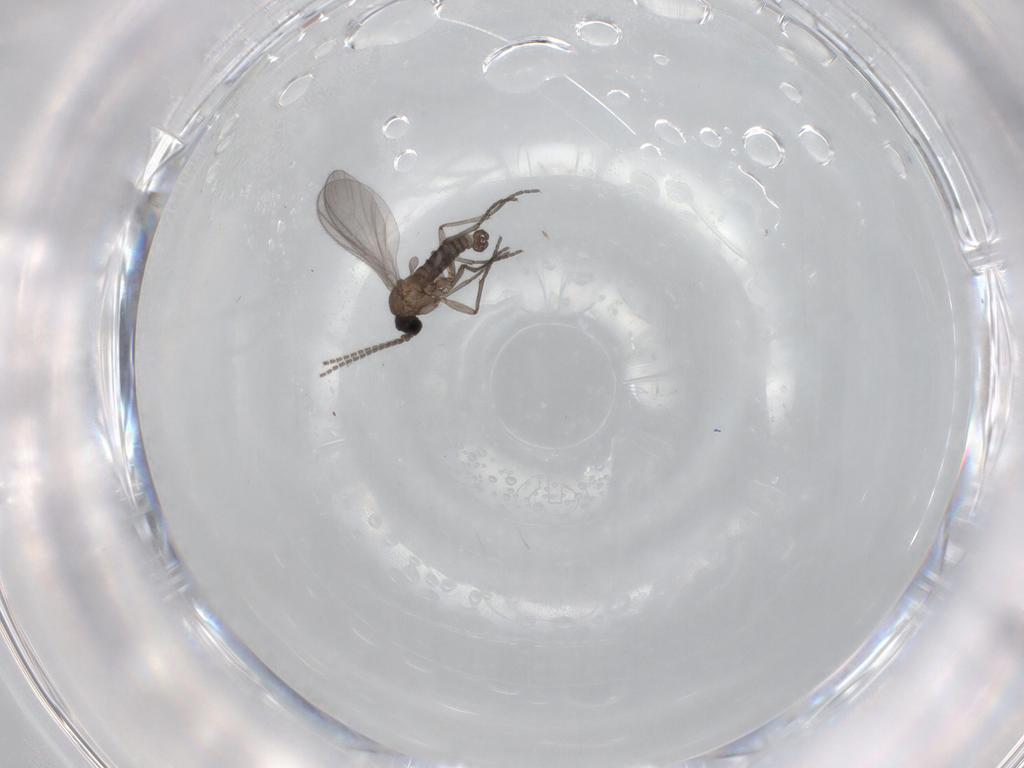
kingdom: Animalia
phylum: Arthropoda
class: Insecta
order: Diptera
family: Sciaridae
